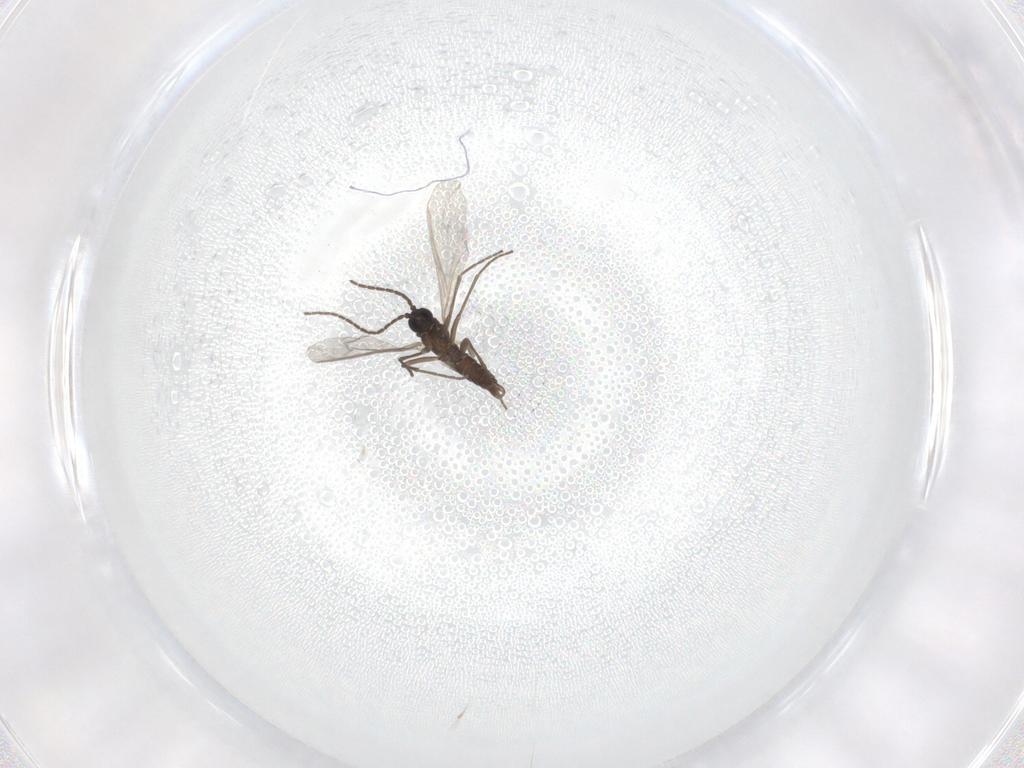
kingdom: Animalia
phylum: Arthropoda
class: Insecta
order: Diptera
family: Sciaridae
